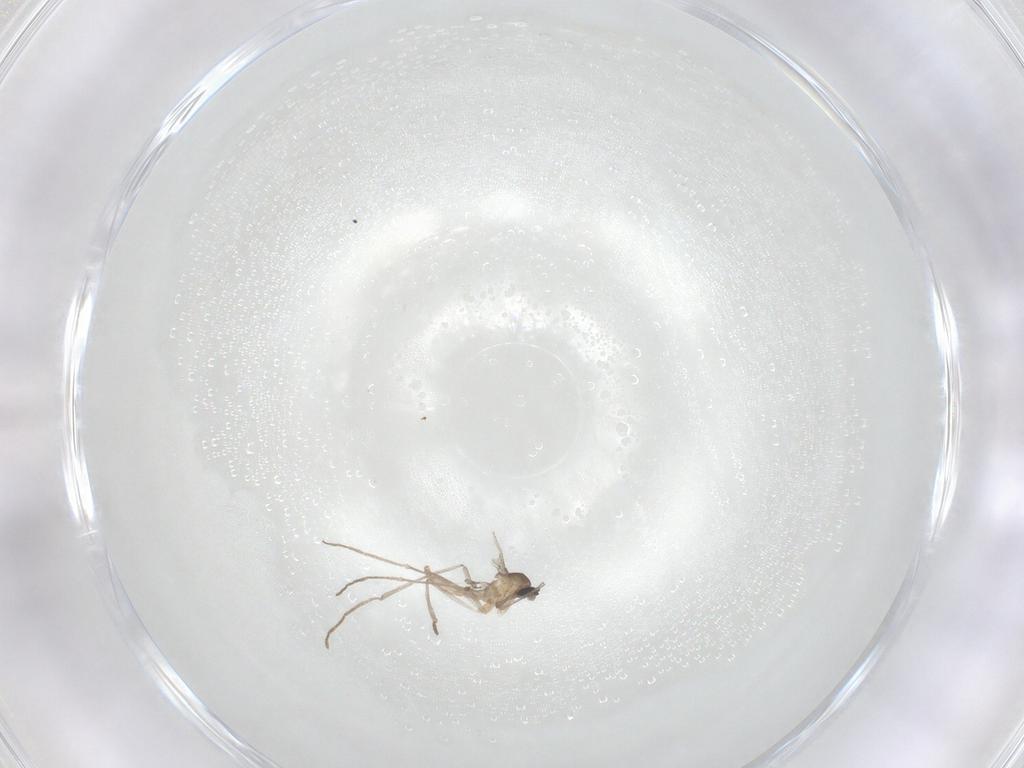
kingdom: Animalia
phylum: Arthropoda
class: Insecta
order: Diptera
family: Cecidomyiidae
